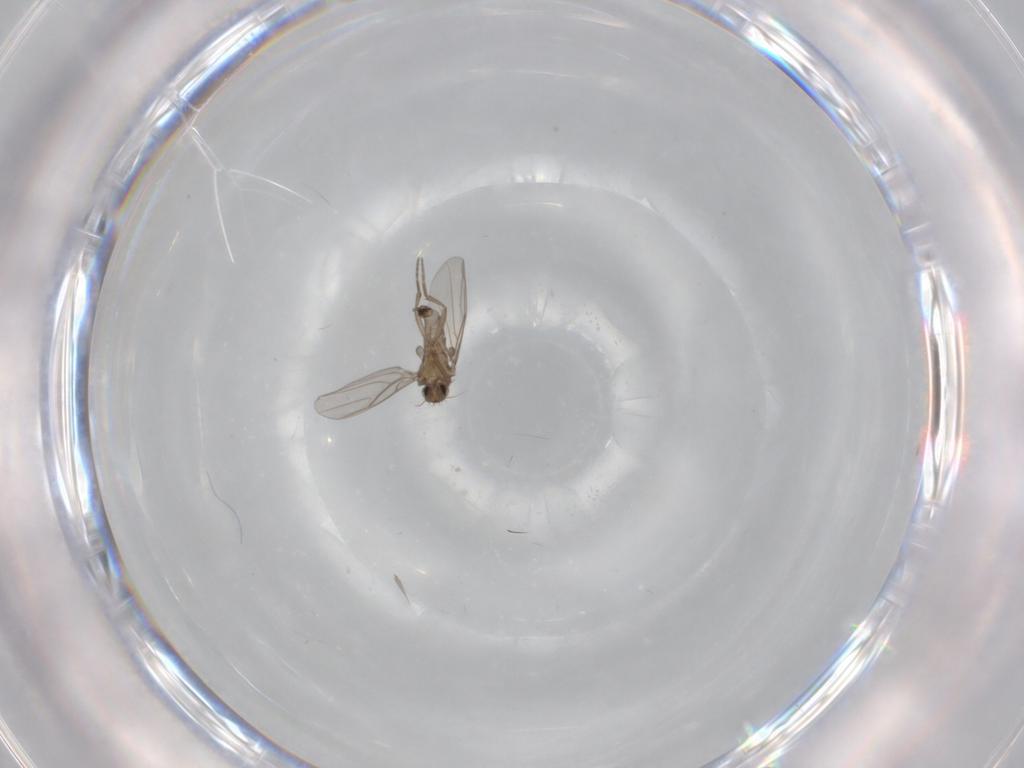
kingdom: Animalia
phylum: Arthropoda
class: Insecta
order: Diptera
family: Phoridae
